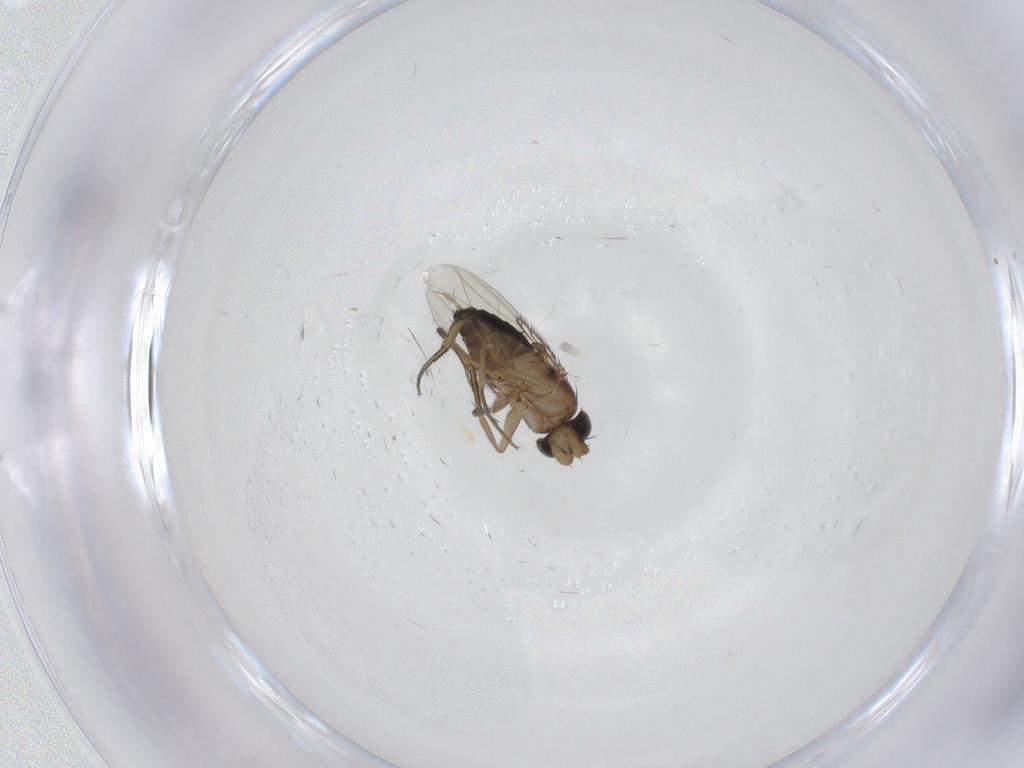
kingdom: Animalia
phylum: Arthropoda
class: Insecta
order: Diptera
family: Phoridae
